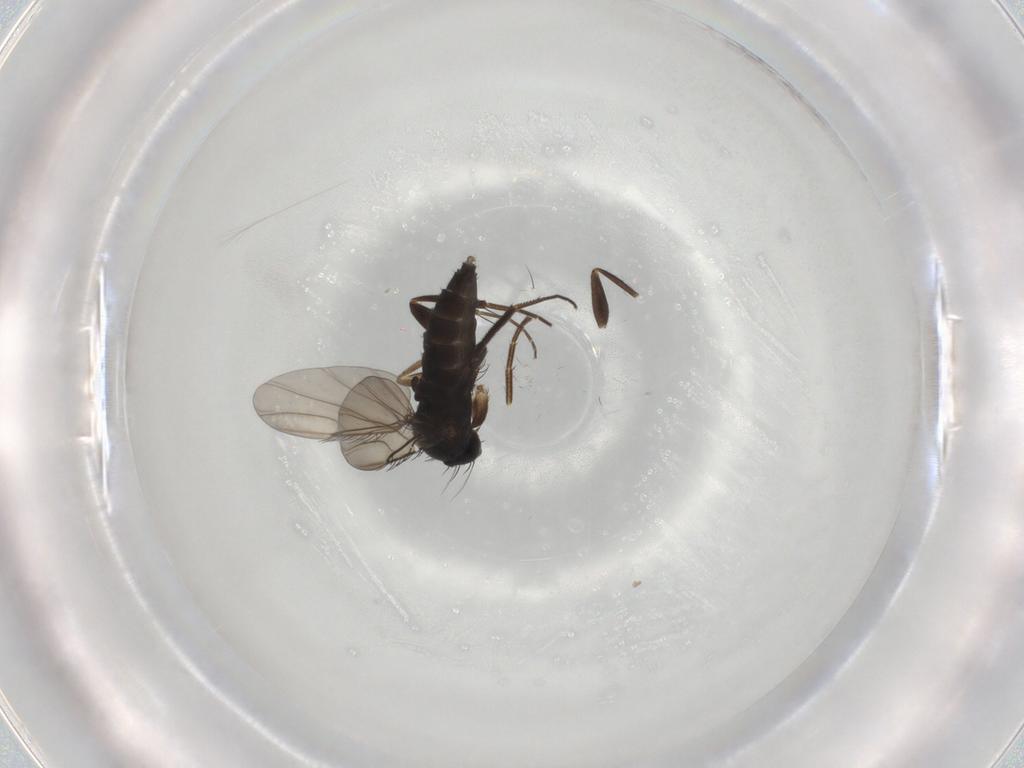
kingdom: Animalia
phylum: Arthropoda
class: Insecta
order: Diptera
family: Phoridae
